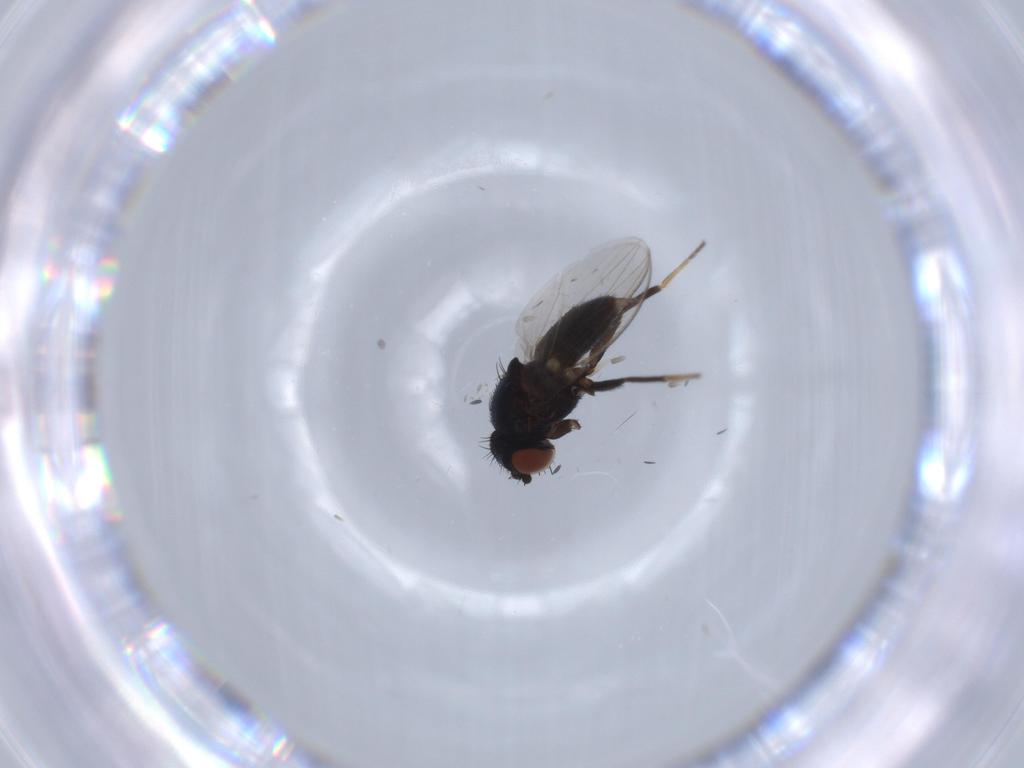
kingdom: Animalia
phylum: Arthropoda
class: Insecta
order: Diptera
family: Milichiidae
